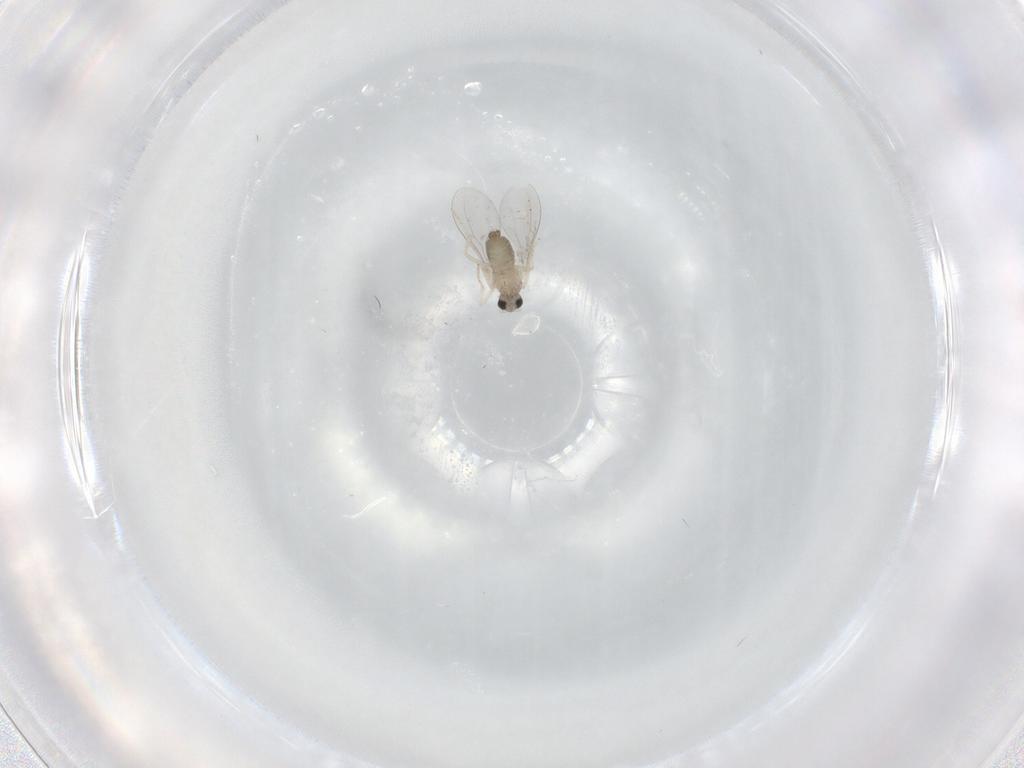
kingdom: Animalia
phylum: Arthropoda
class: Insecta
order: Diptera
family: Cecidomyiidae
